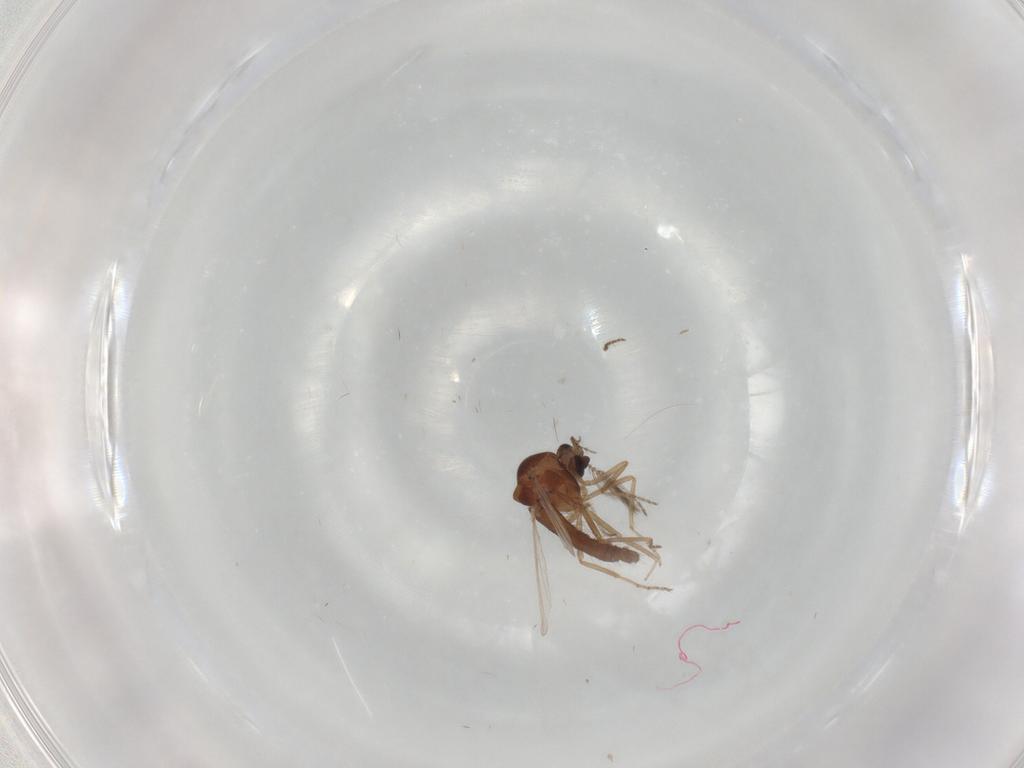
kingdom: Animalia
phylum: Arthropoda
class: Insecta
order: Diptera
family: Ceratopogonidae
